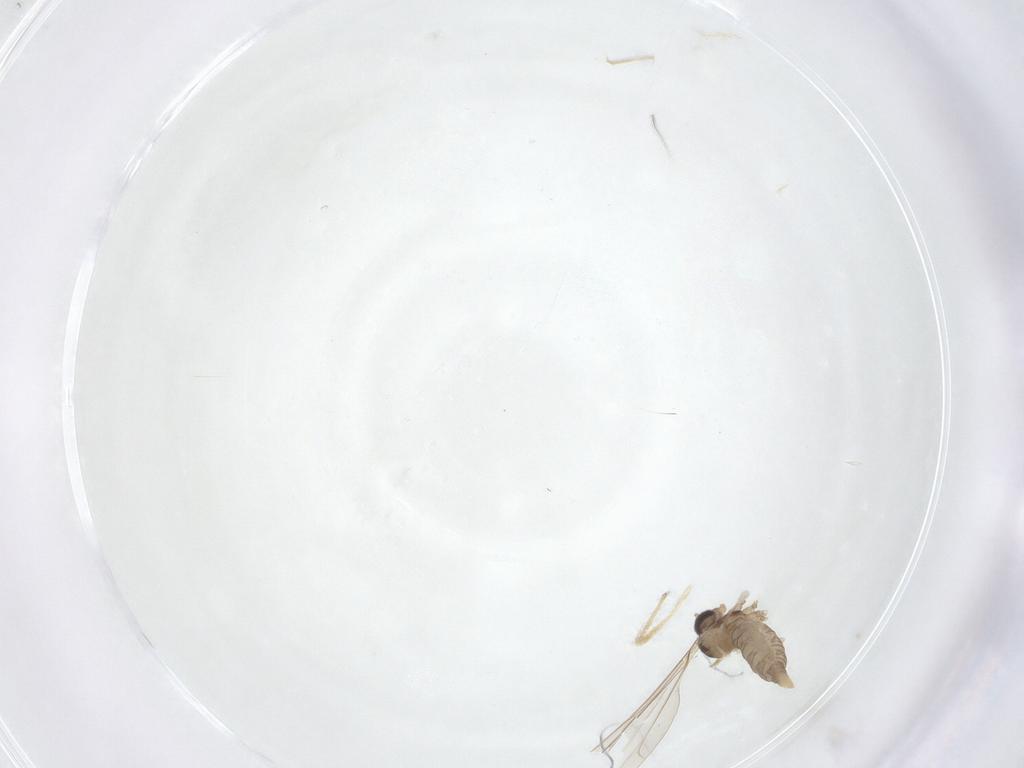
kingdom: Animalia
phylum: Arthropoda
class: Insecta
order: Diptera
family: Cecidomyiidae
